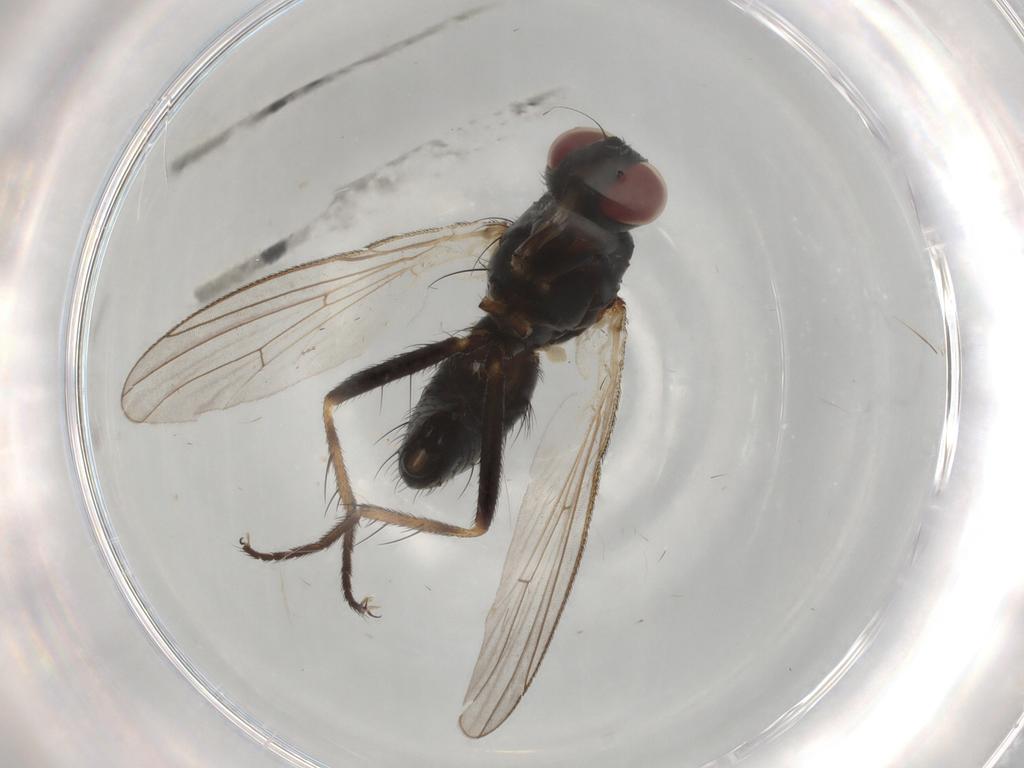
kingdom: Animalia
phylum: Arthropoda
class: Insecta
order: Diptera
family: Muscidae
